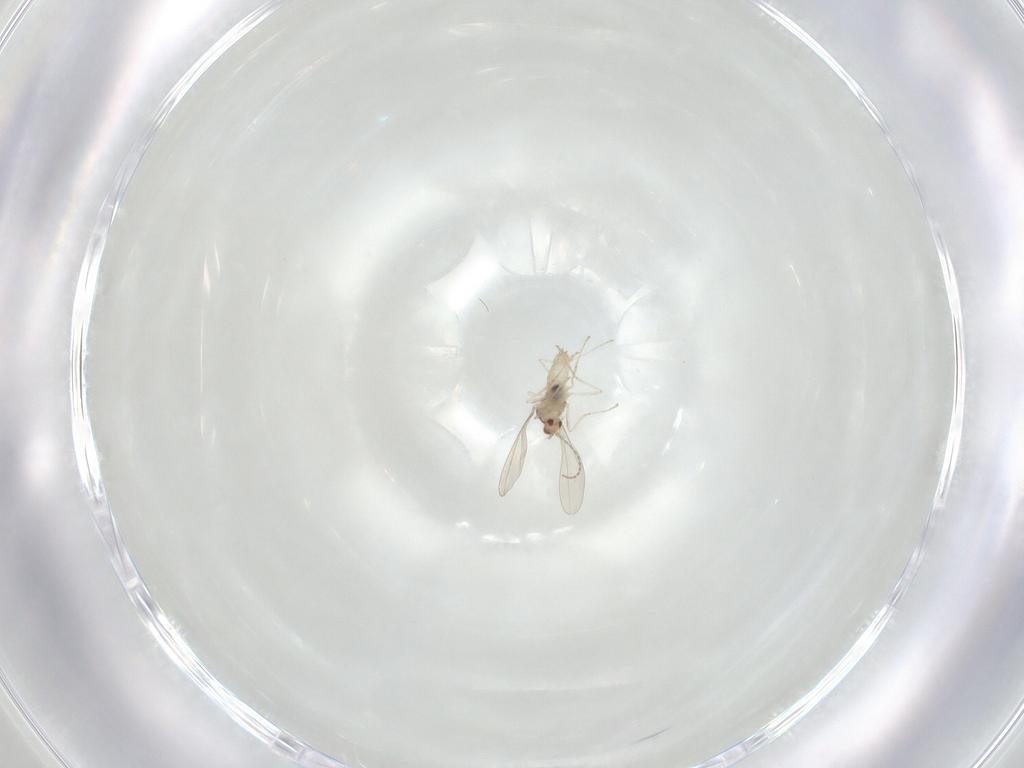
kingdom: Animalia
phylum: Arthropoda
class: Insecta
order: Diptera
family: Cecidomyiidae
